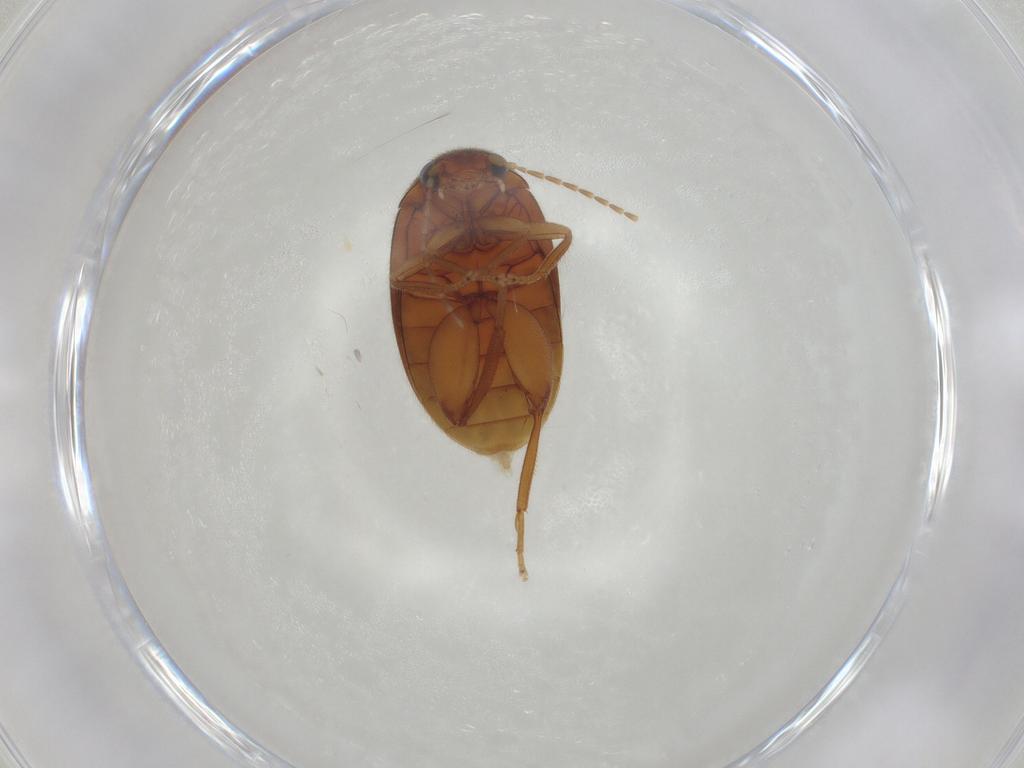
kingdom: Animalia
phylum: Arthropoda
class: Insecta
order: Coleoptera
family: Scirtidae
